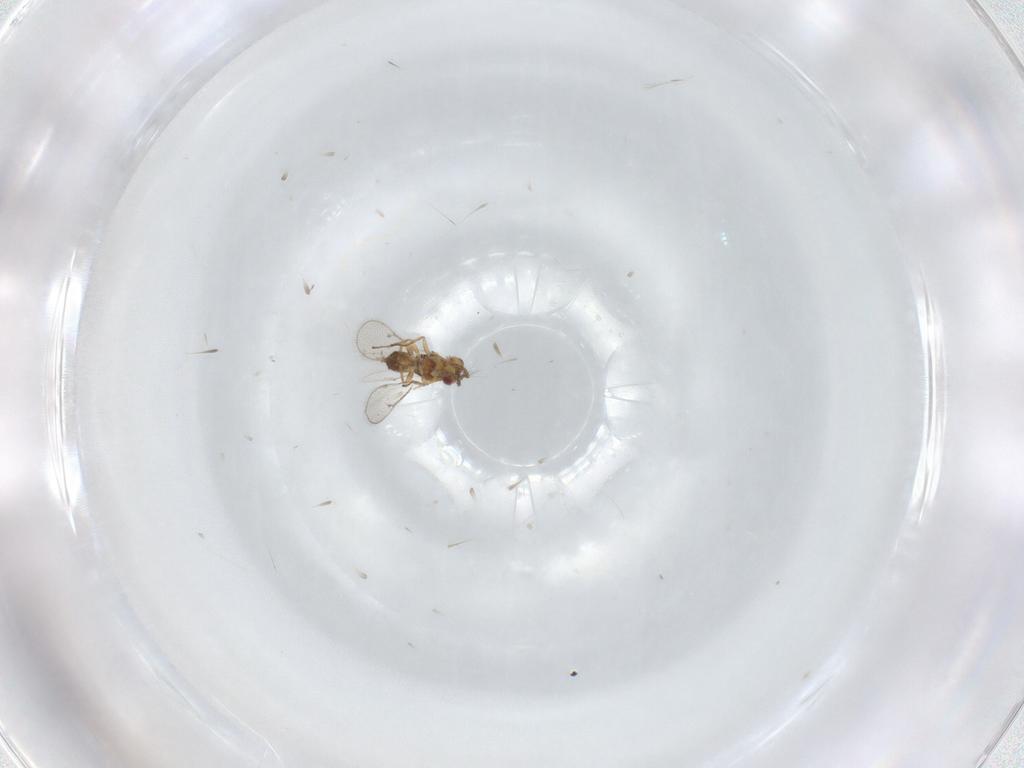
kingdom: Animalia
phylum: Arthropoda
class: Insecta
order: Hymenoptera
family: Eulophidae
